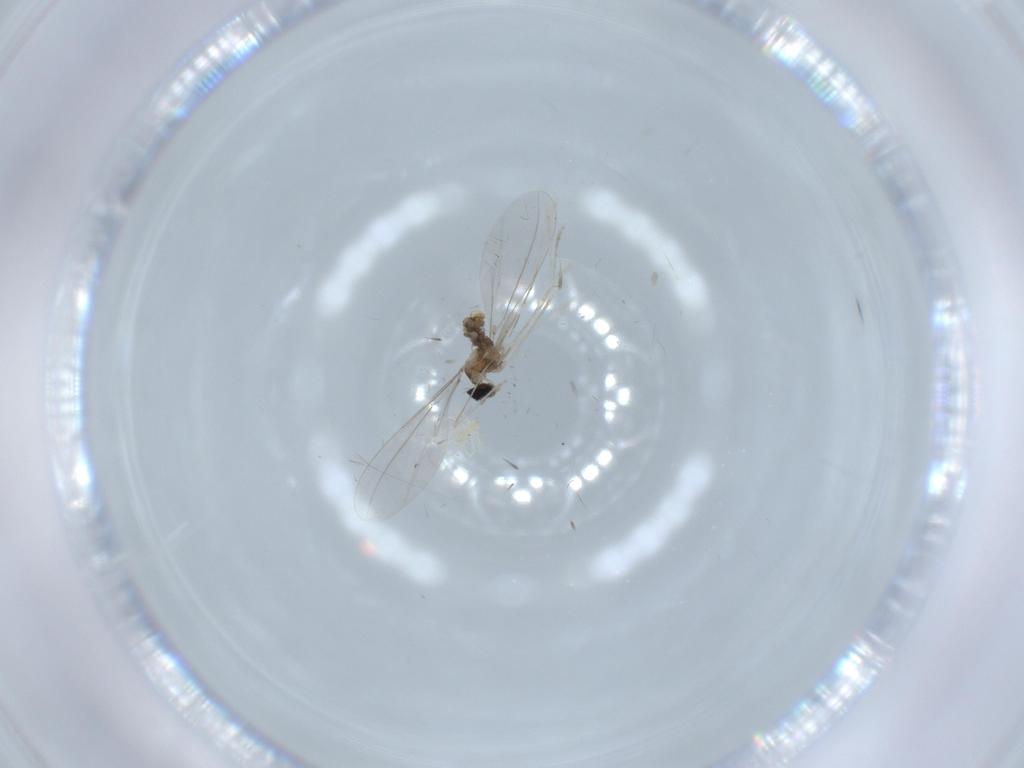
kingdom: Animalia
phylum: Arthropoda
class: Insecta
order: Diptera
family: Cecidomyiidae
